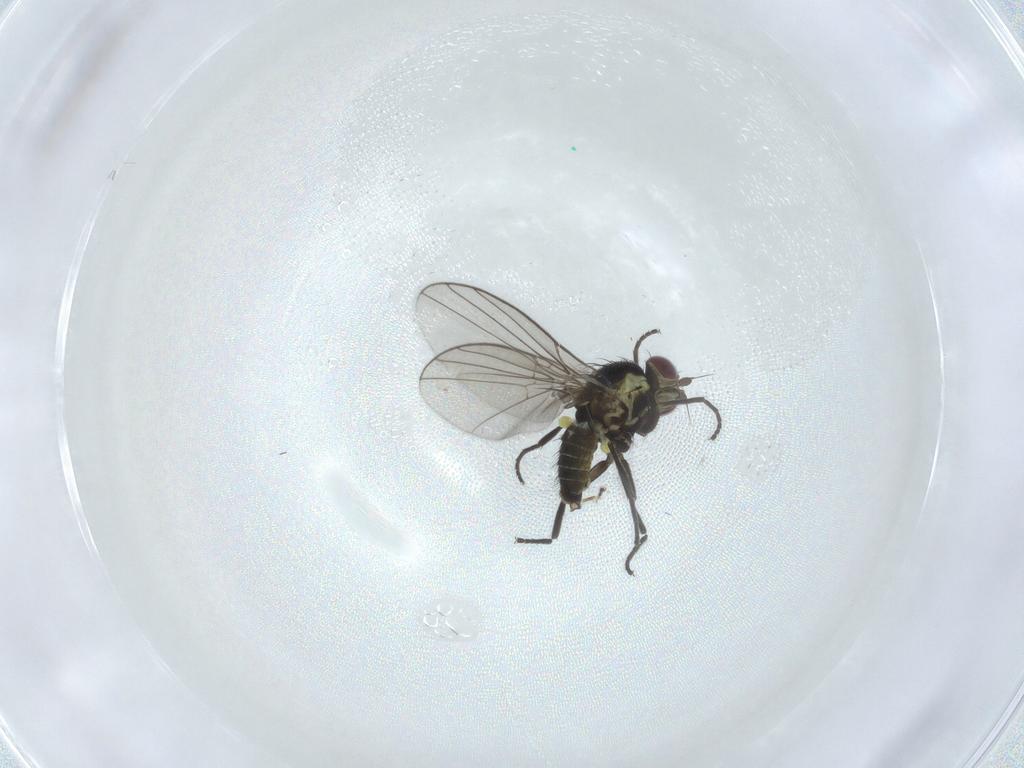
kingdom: Animalia
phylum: Arthropoda
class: Insecta
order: Diptera
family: Agromyzidae
